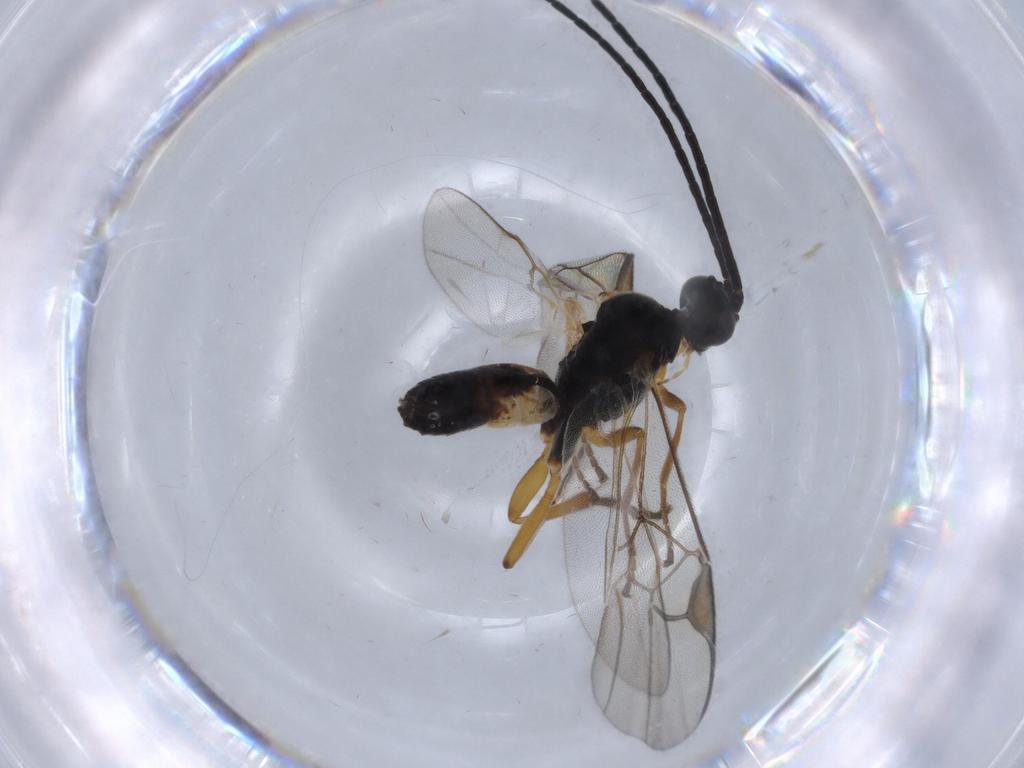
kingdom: Animalia
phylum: Arthropoda
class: Insecta
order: Hymenoptera
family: Braconidae
